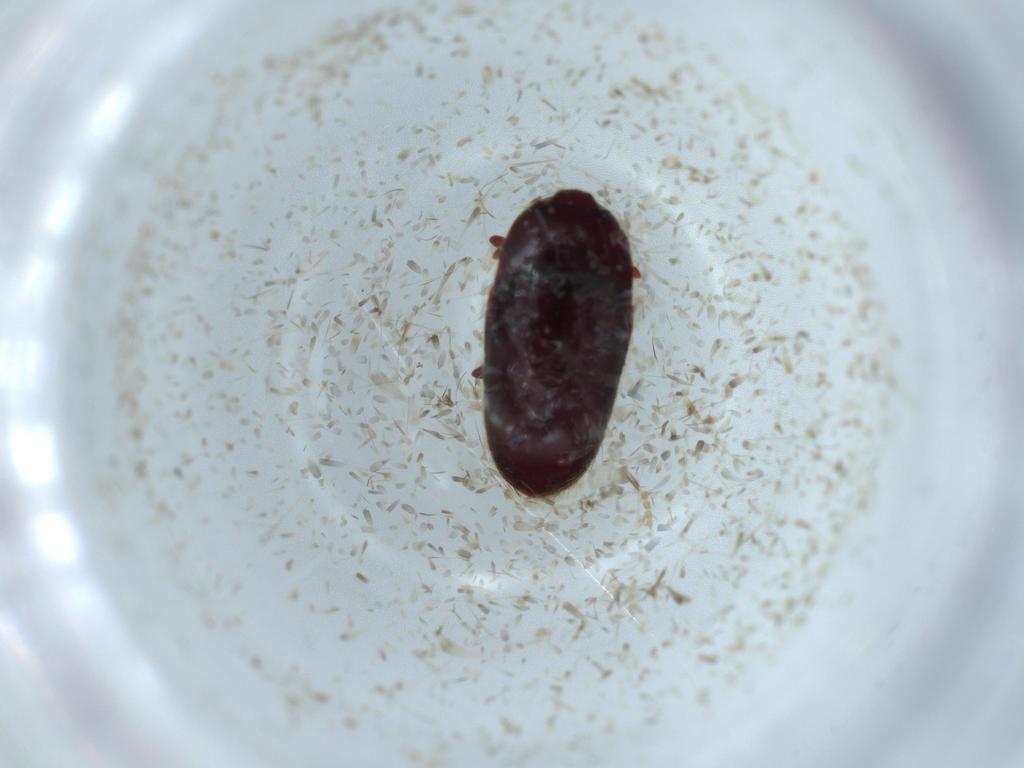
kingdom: Animalia
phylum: Arthropoda
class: Insecta
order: Coleoptera
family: Throscidae
